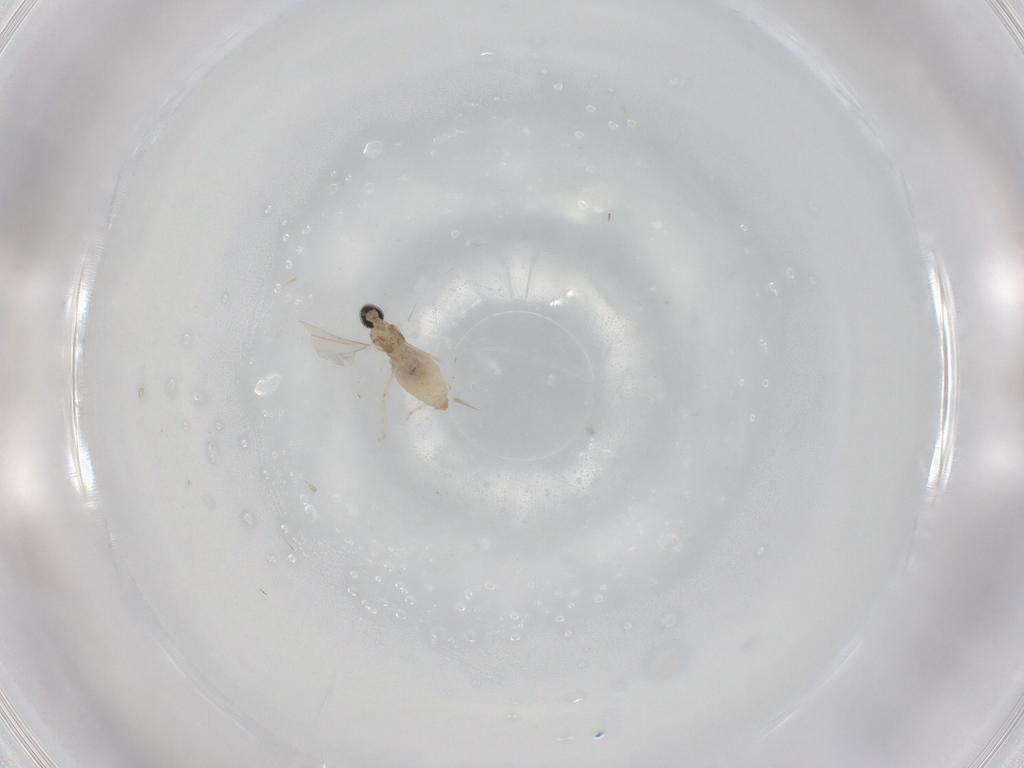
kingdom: Animalia
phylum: Arthropoda
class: Insecta
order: Diptera
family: Cecidomyiidae
